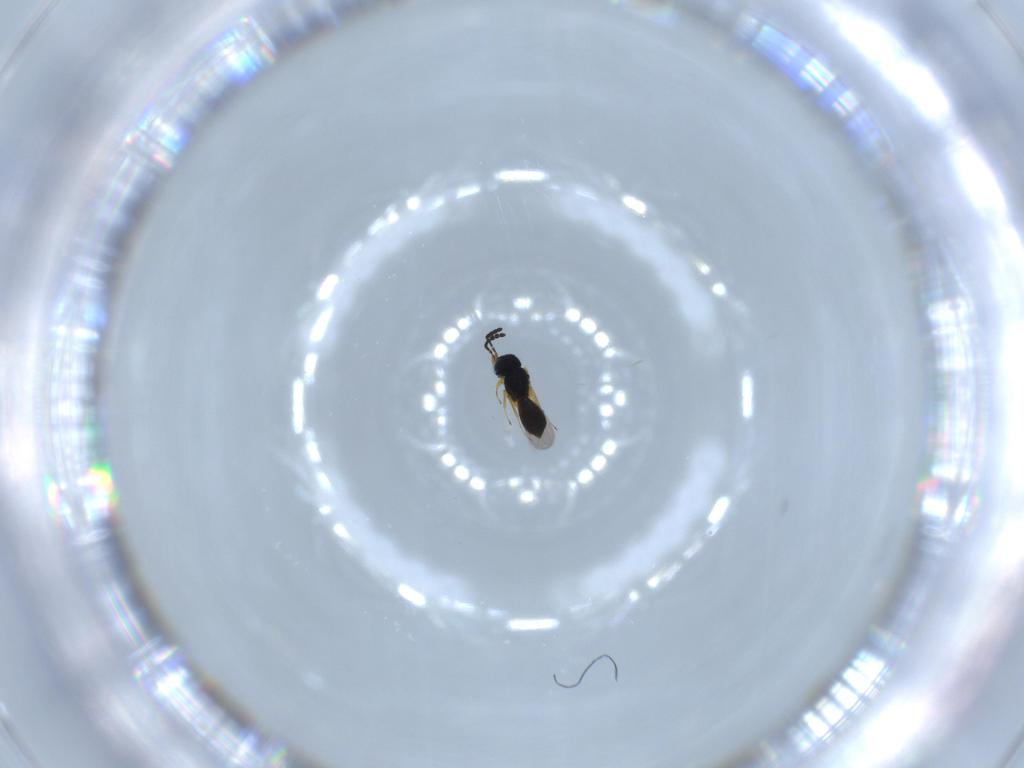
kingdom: Animalia
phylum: Arthropoda
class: Insecta
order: Hymenoptera
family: Scelionidae
